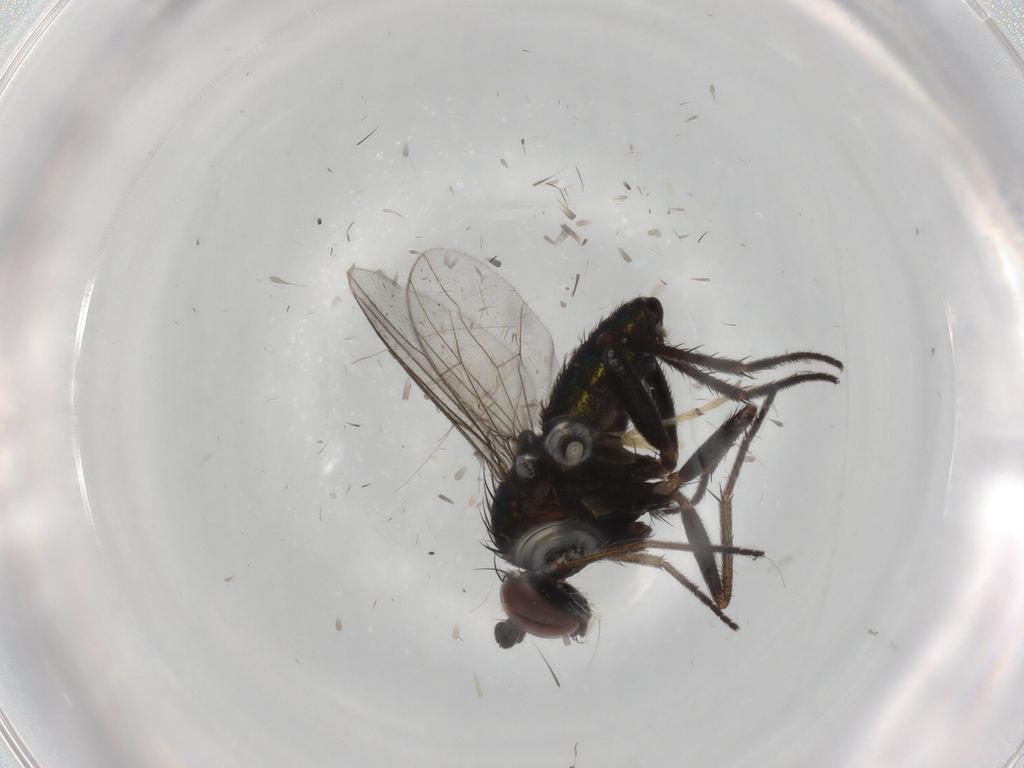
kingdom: Animalia
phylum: Arthropoda
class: Insecta
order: Diptera
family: Dolichopodidae
